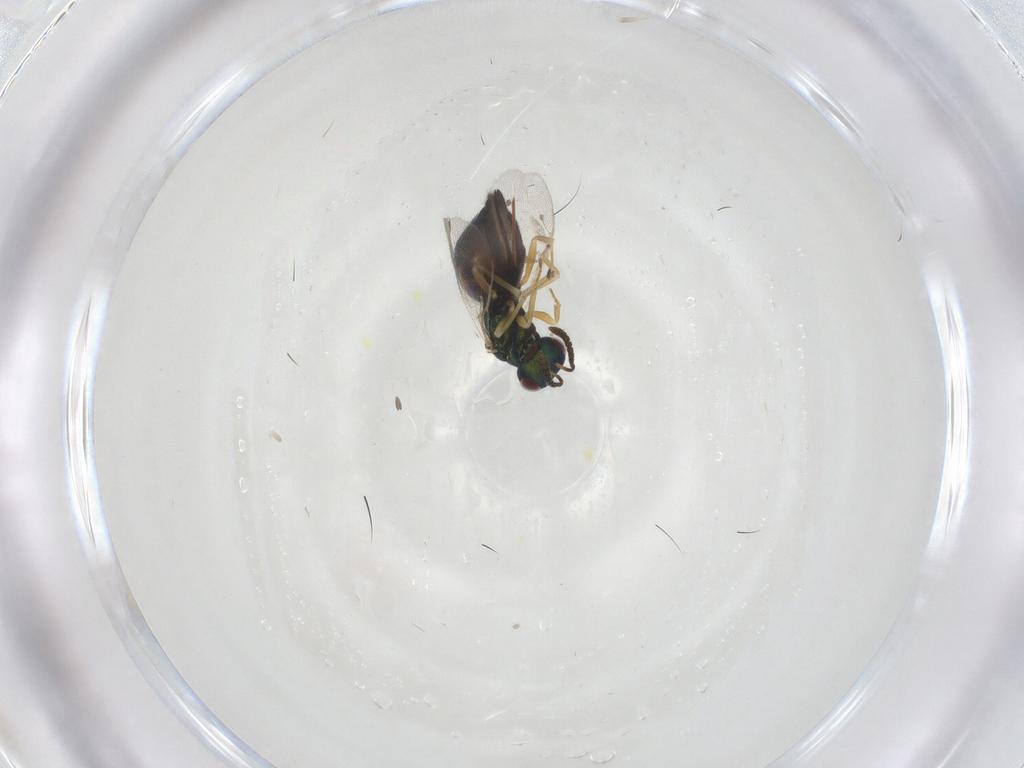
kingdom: Animalia
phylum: Arthropoda
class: Insecta
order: Hymenoptera
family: Pteromalidae
